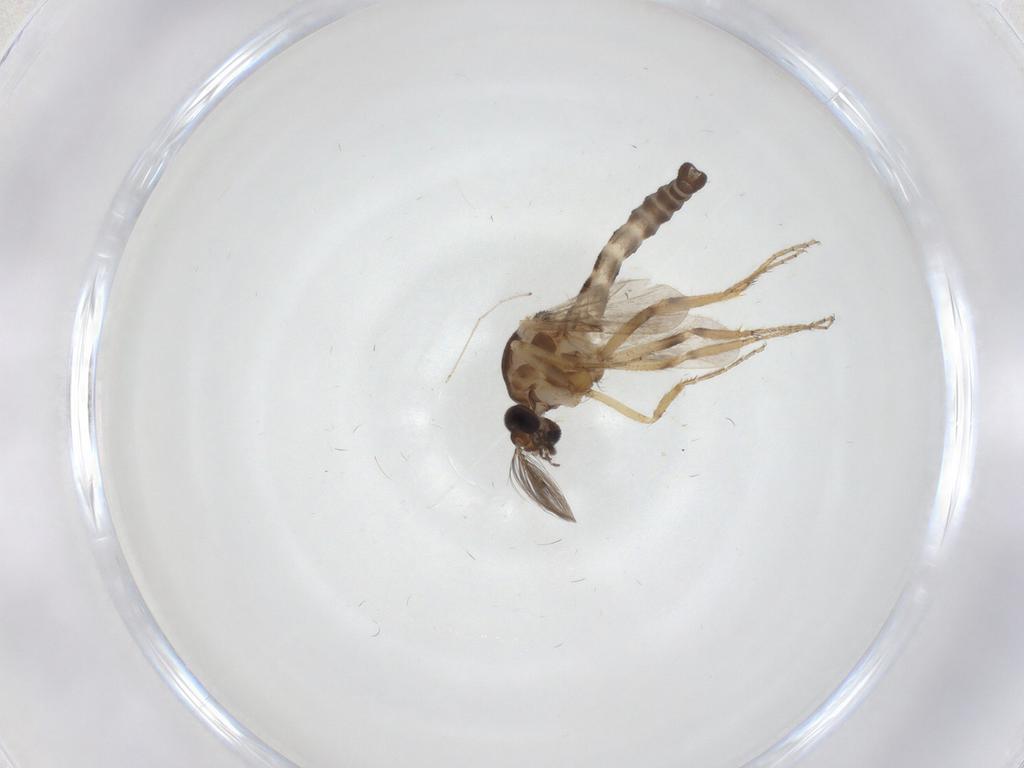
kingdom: Animalia
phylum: Arthropoda
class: Insecta
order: Diptera
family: Ceratopogonidae
